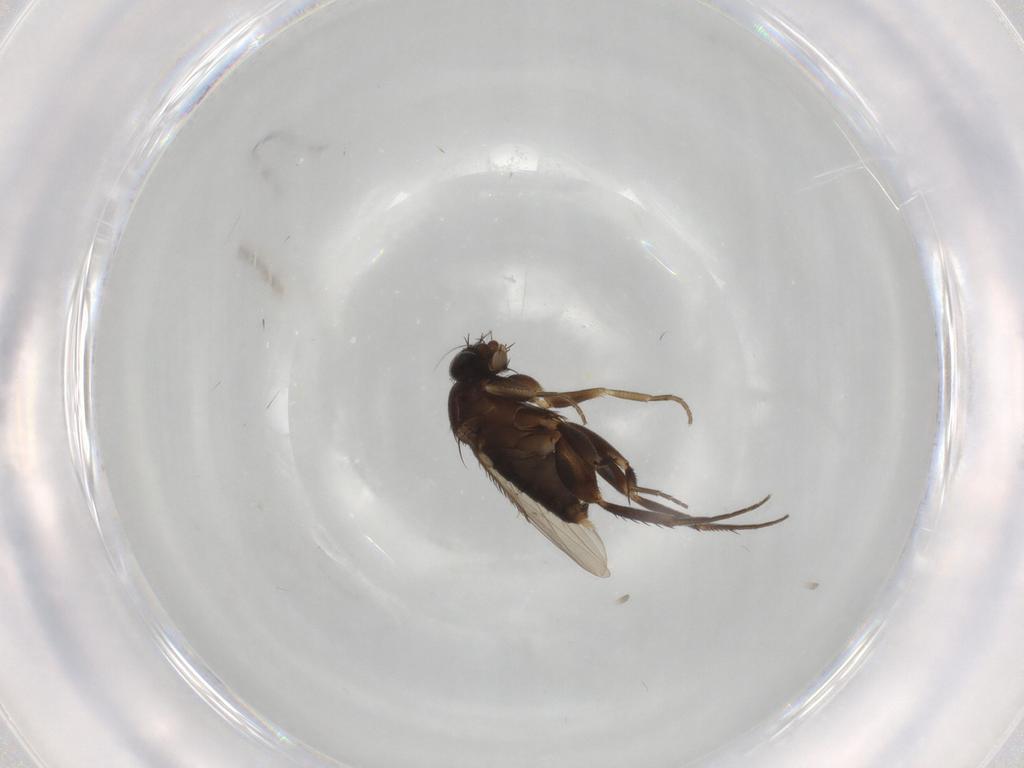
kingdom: Animalia
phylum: Arthropoda
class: Insecta
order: Diptera
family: Phoridae
